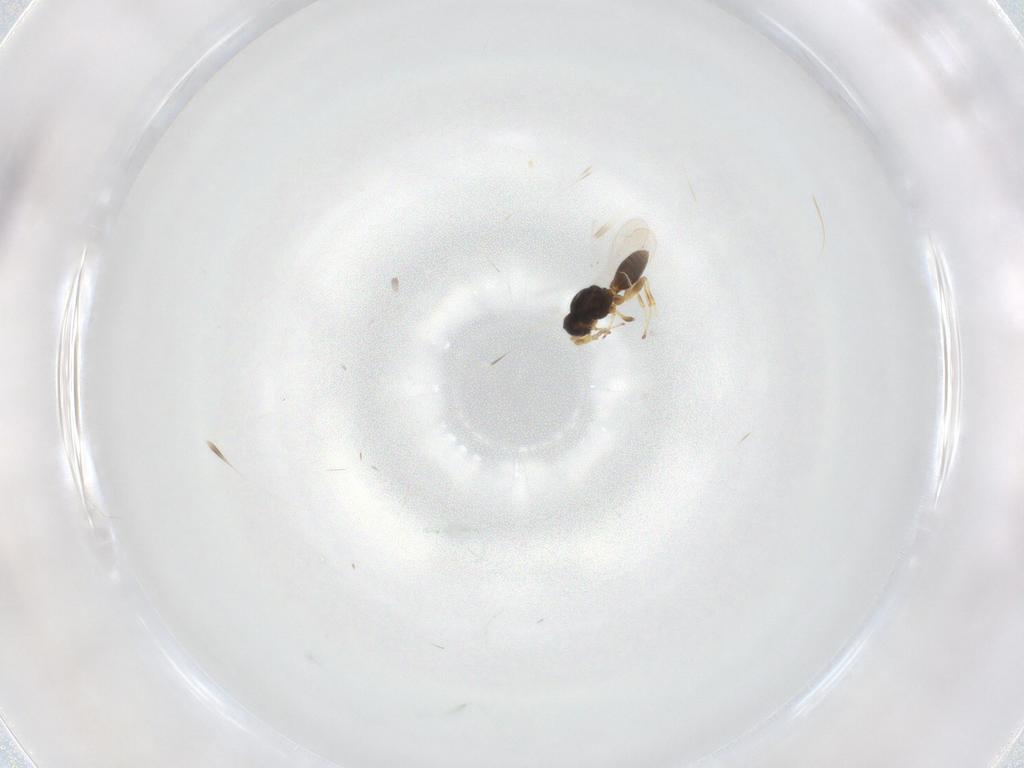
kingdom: Animalia
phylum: Arthropoda
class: Insecta
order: Hymenoptera
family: Platygastridae
